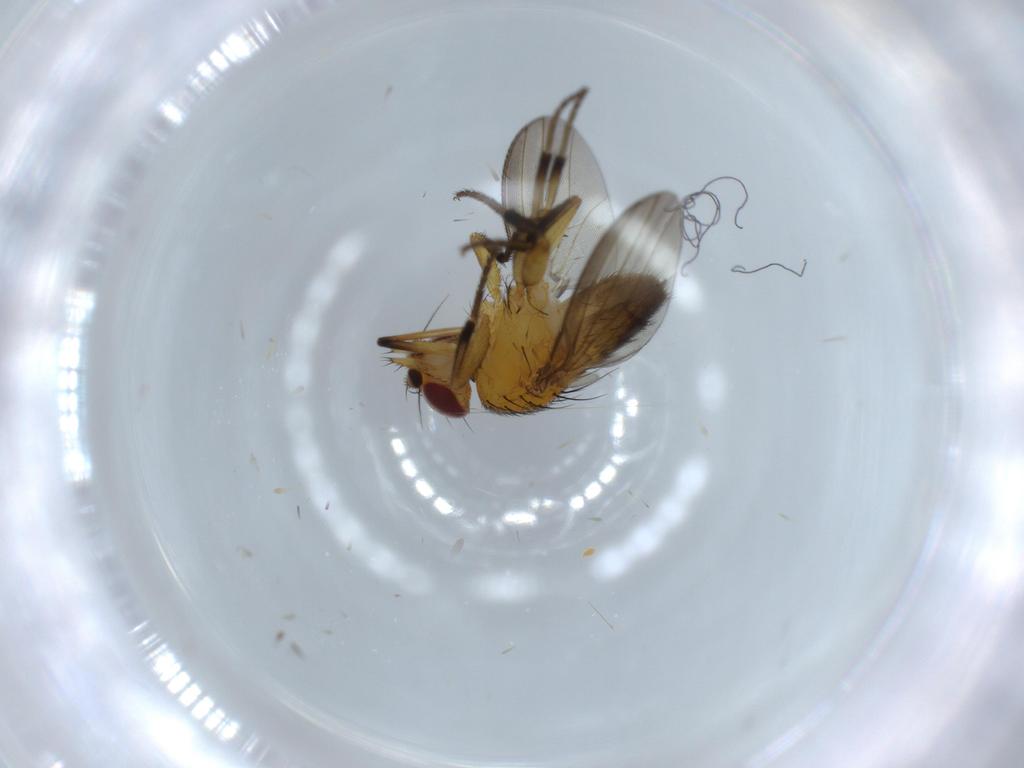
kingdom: Animalia
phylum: Arthropoda
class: Insecta
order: Diptera
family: Milichiidae
